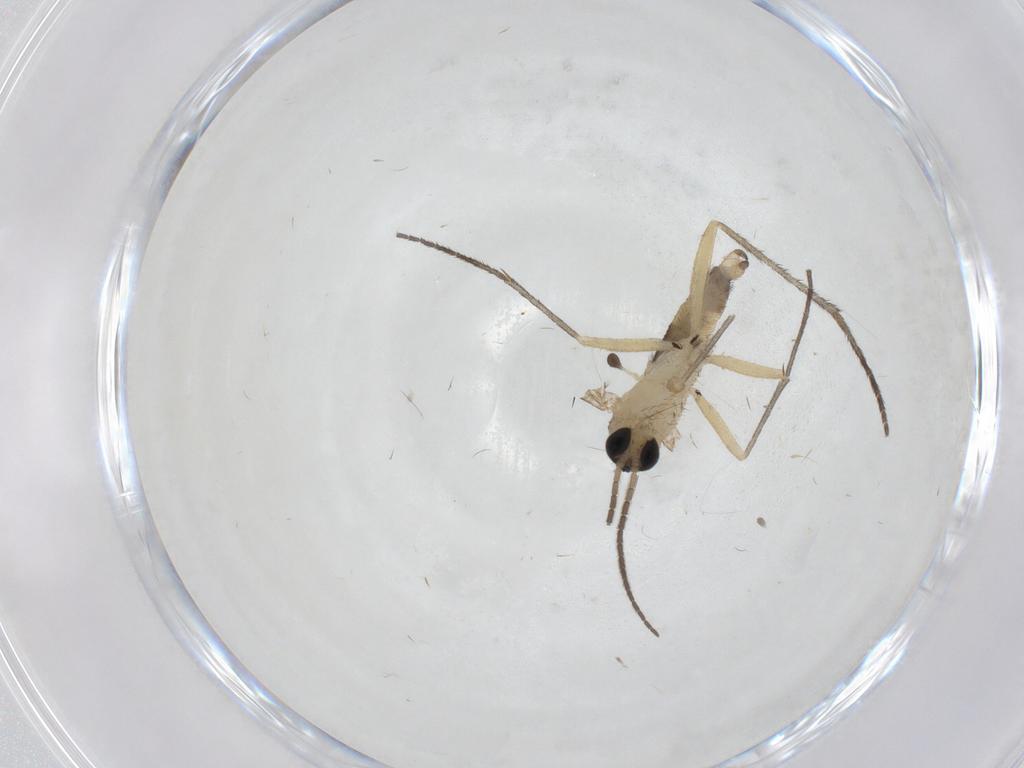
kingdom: Animalia
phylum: Arthropoda
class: Insecta
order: Diptera
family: Sciaridae
